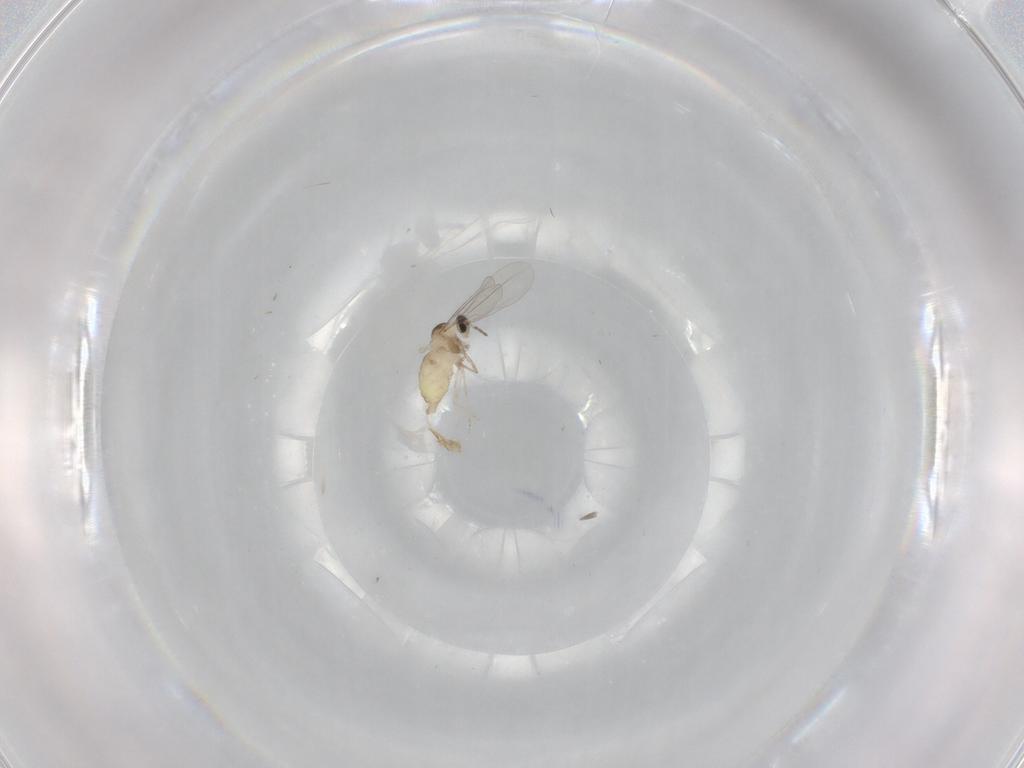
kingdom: Animalia
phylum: Arthropoda
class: Insecta
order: Diptera
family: Cecidomyiidae
